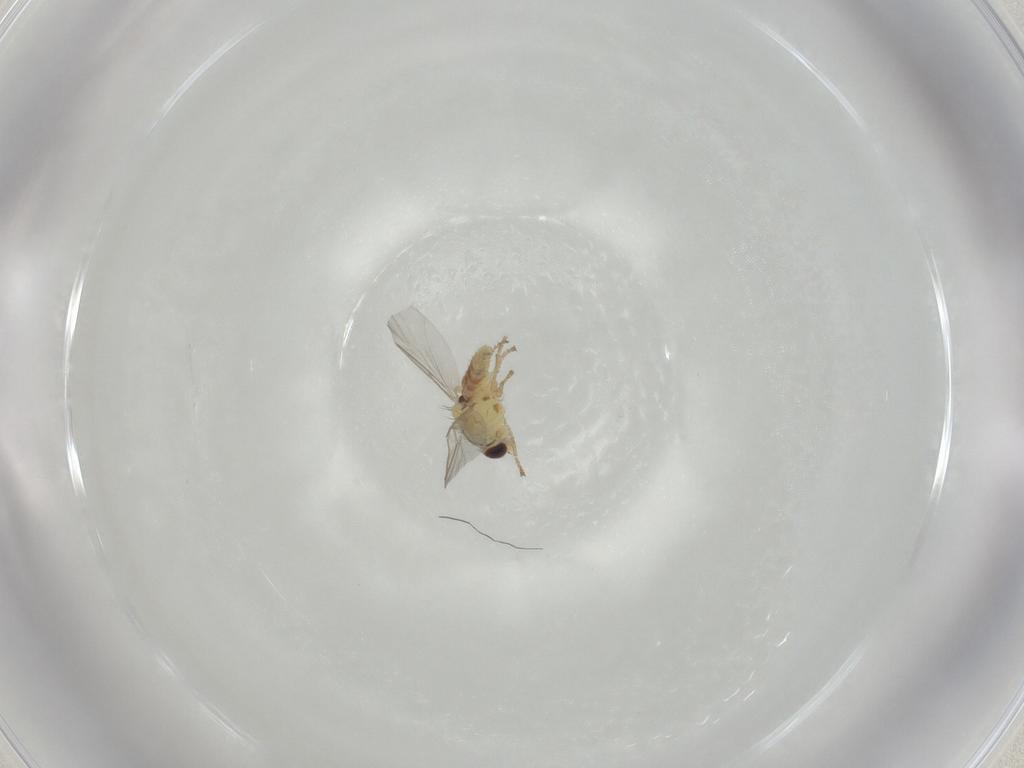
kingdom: Animalia
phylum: Arthropoda
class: Insecta
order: Diptera
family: Agromyzidae
